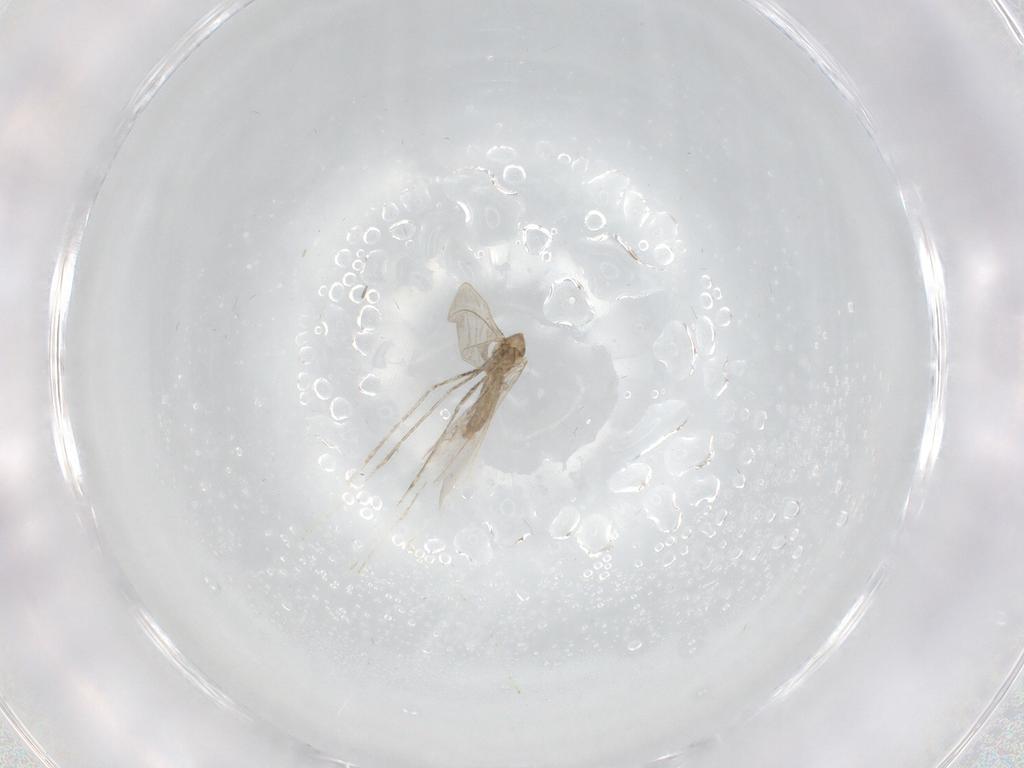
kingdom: Animalia
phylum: Arthropoda
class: Insecta
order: Diptera
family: Cecidomyiidae
